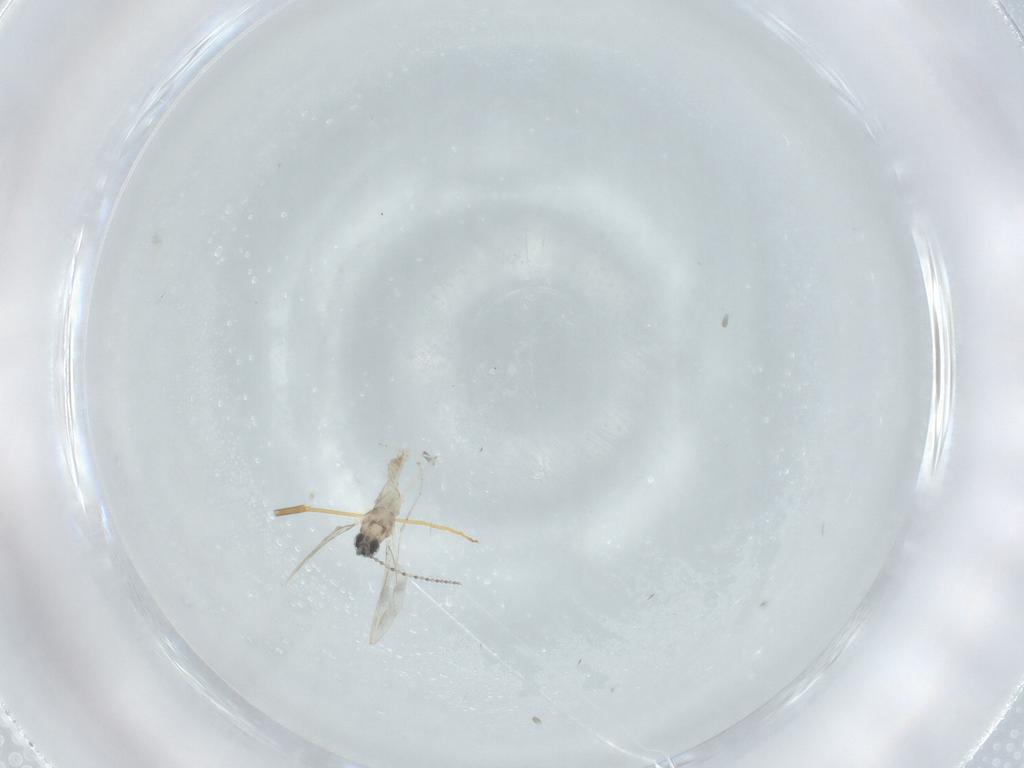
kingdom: Animalia
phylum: Arthropoda
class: Insecta
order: Diptera
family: Cecidomyiidae
